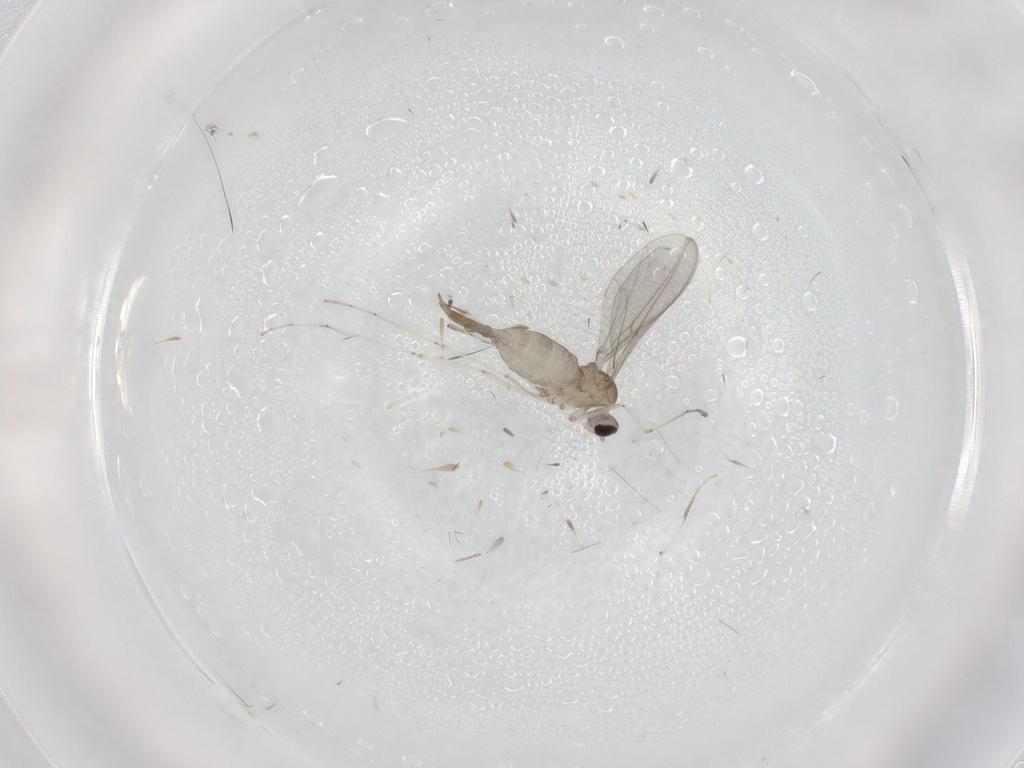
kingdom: Animalia
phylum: Arthropoda
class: Insecta
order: Diptera
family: Cecidomyiidae
